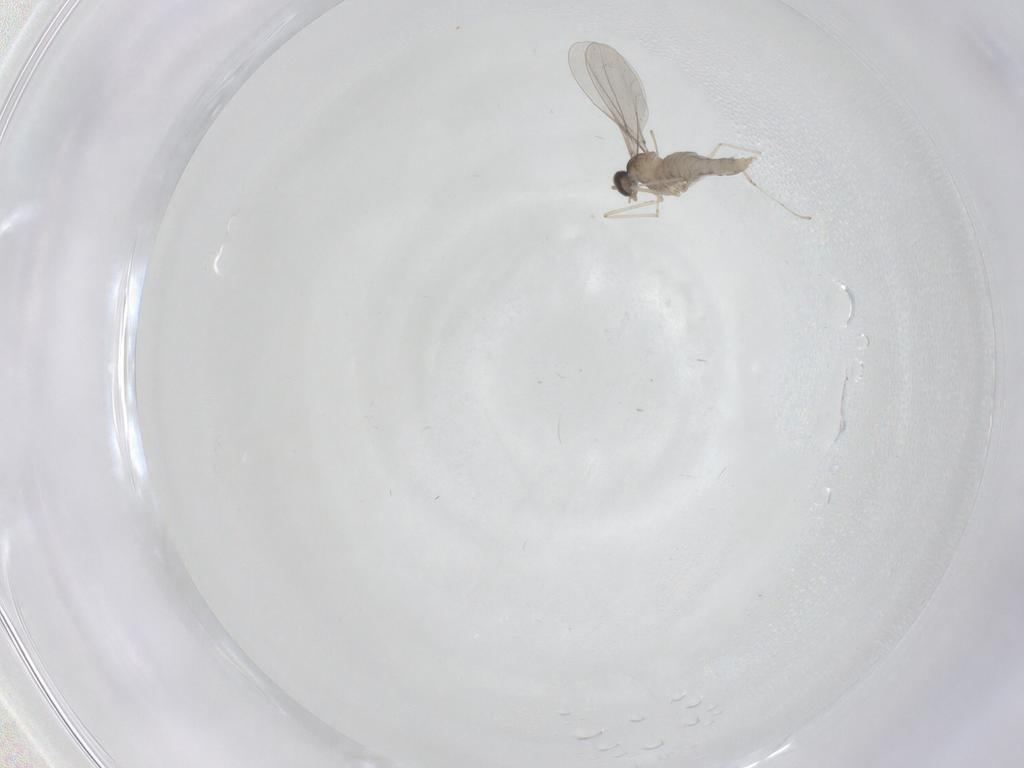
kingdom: Animalia
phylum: Arthropoda
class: Insecta
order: Diptera
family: Cecidomyiidae
